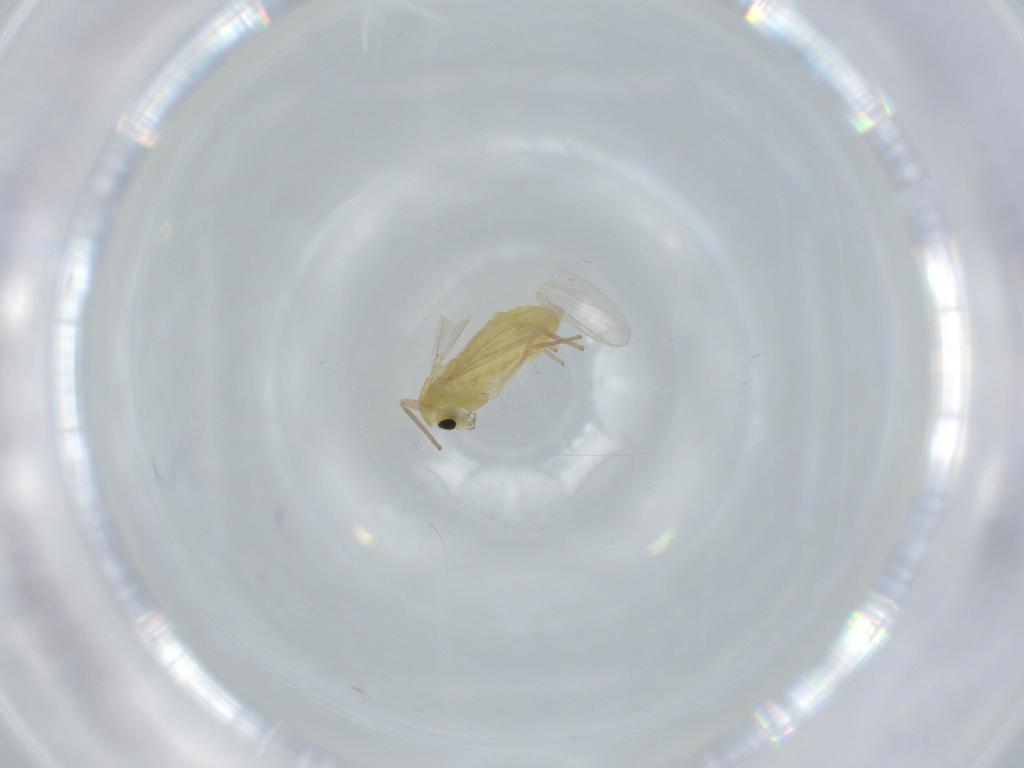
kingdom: Animalia
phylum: Arthropoda
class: Insecta
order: Diptera
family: Chironomidae
